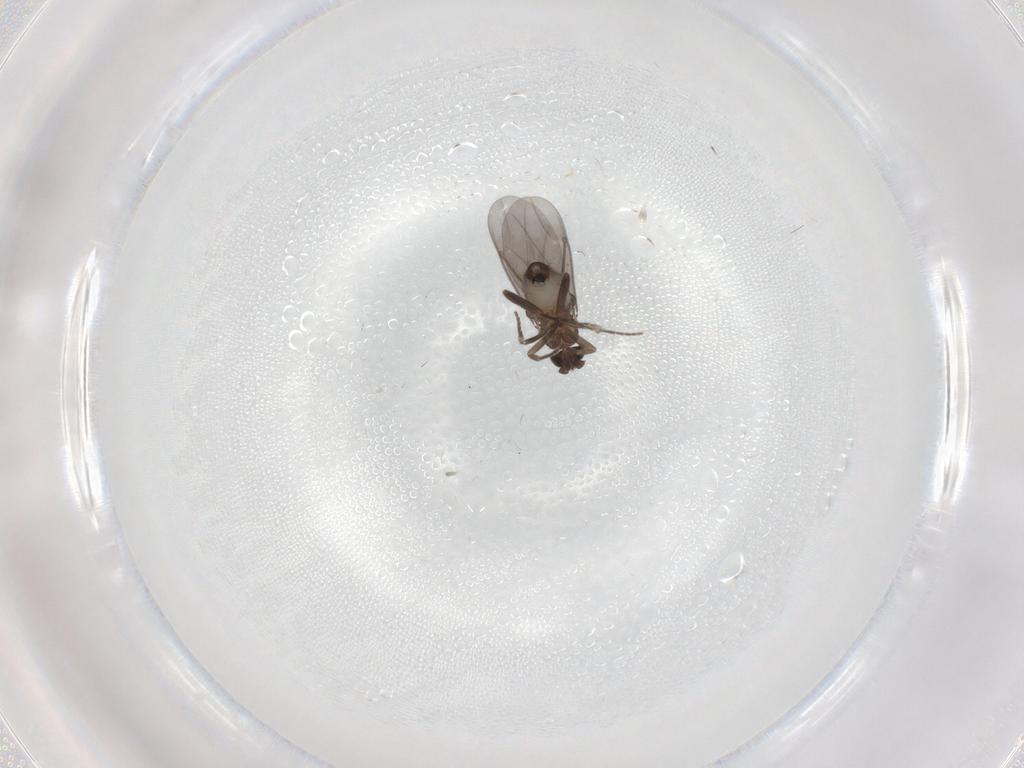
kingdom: Animalia
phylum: Arthropoda
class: Insecta
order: Diptera
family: Cecidomyiidae
